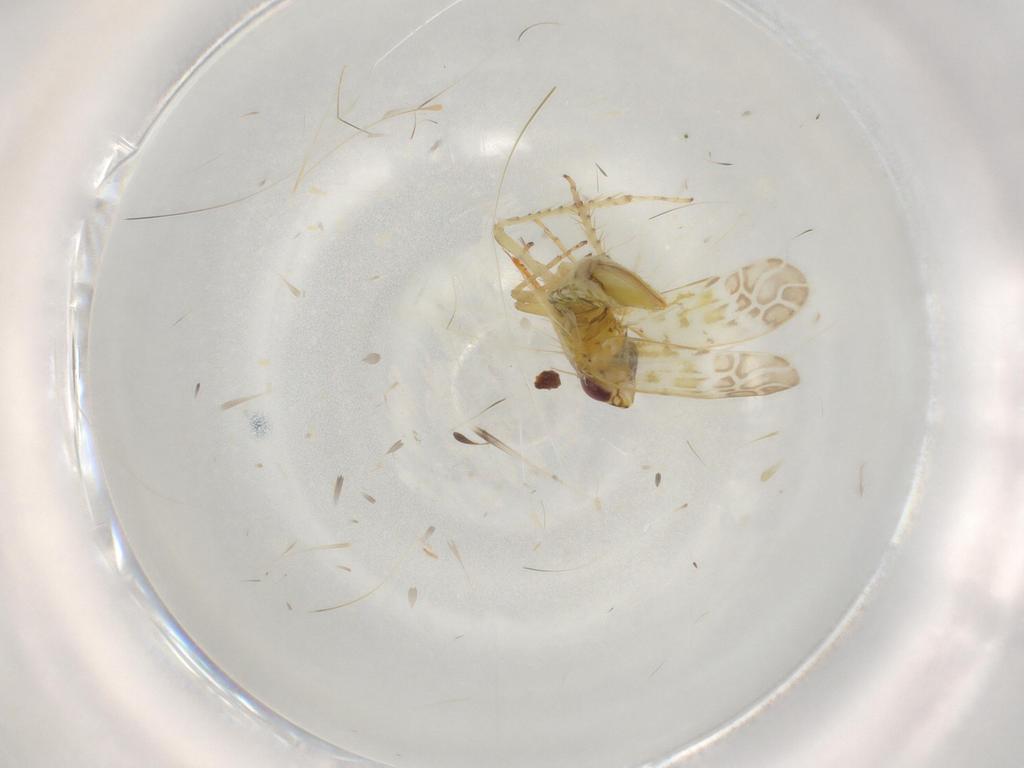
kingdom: Animalia
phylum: Arthropoda
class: Insecta
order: Hemiptera
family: Cicadellidae
